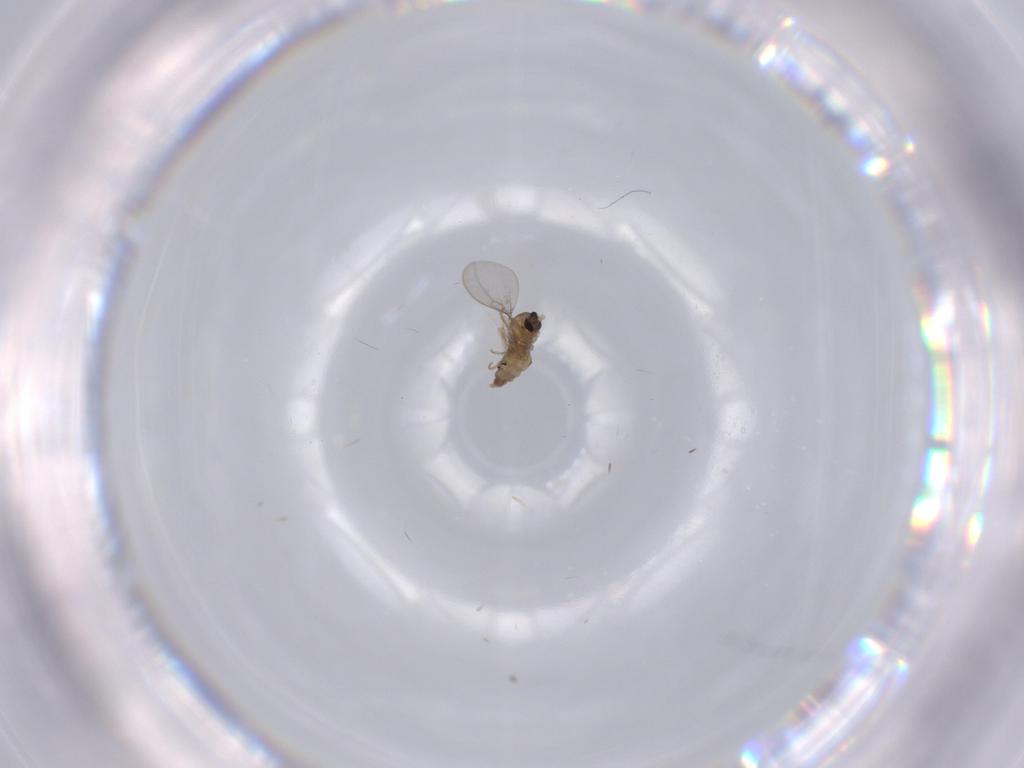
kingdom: Animalia
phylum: Arthropoda
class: Insecta
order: Diptera
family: Cecidomyiidae
